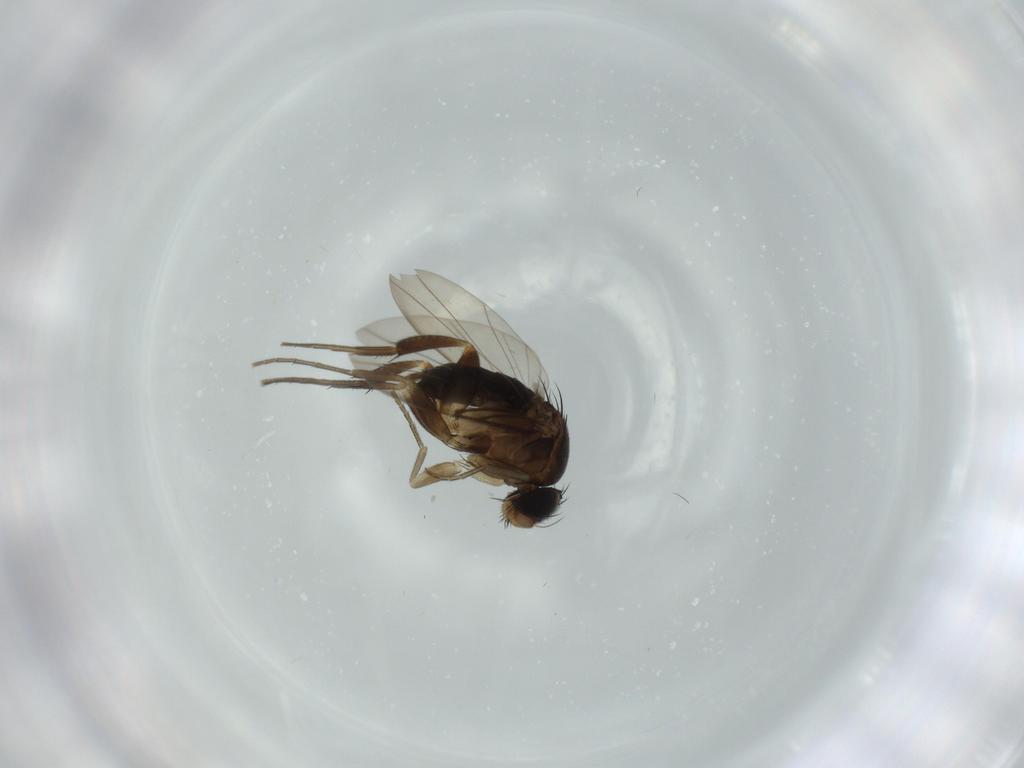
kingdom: Animalia
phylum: Arthropoda
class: Insecta
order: Diptera
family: Phoridae
